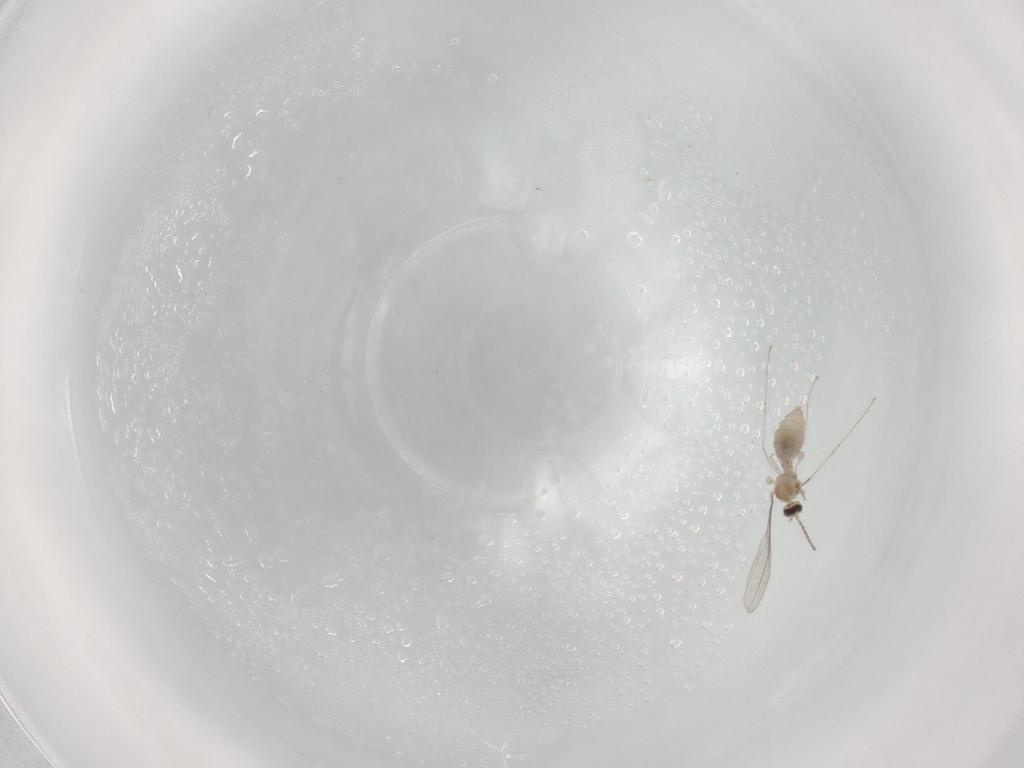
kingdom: Animalia
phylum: Arthropoda
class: Insecta
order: Diptera
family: Cecidomyiidae
